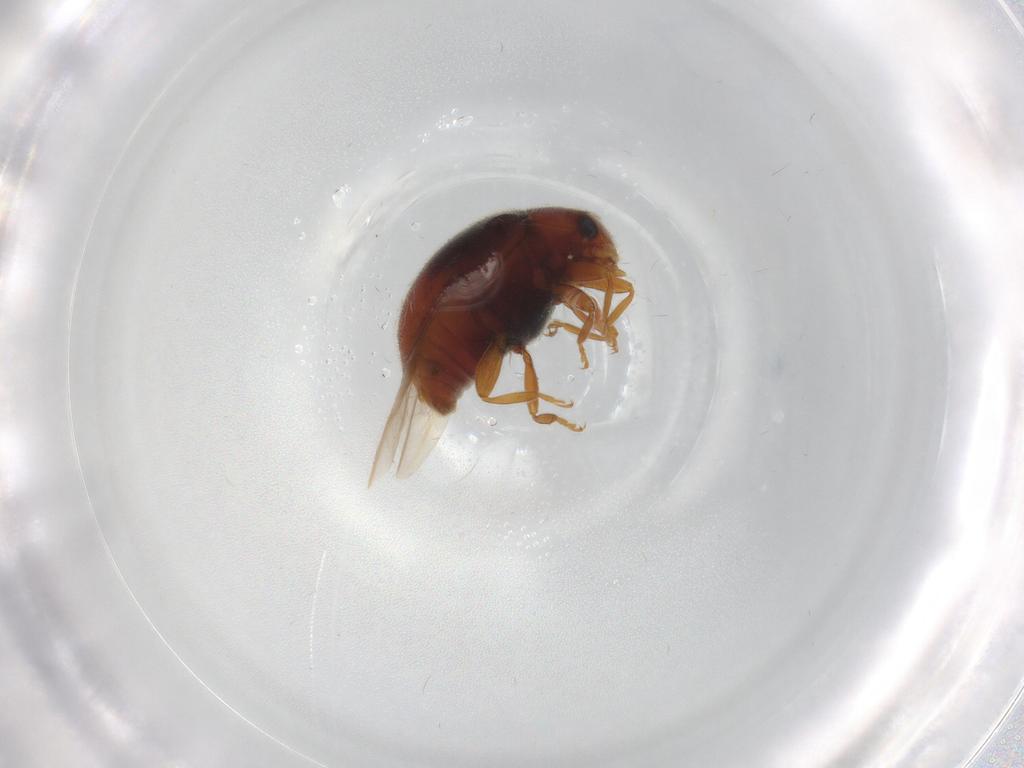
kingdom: Animalia
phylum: Arthropoda
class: Insecta
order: Coleoptera
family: Coccinellidae
